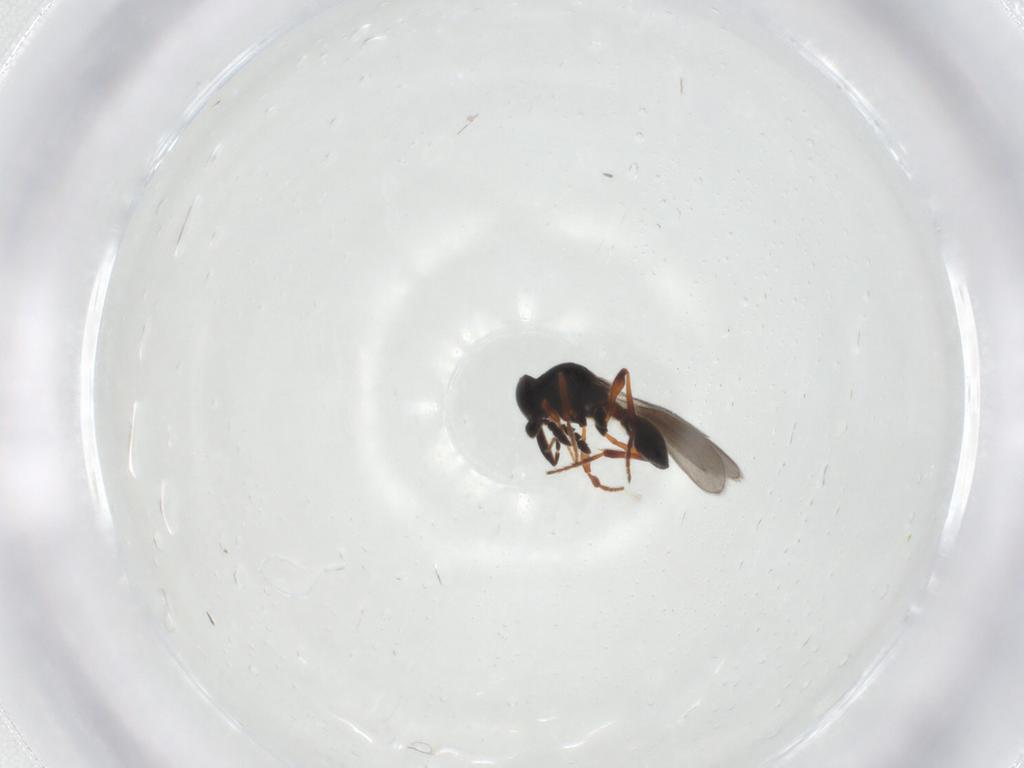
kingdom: Animalia
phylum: Arthropoda
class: Insecta
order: Hymenoptera
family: Platygastridae
